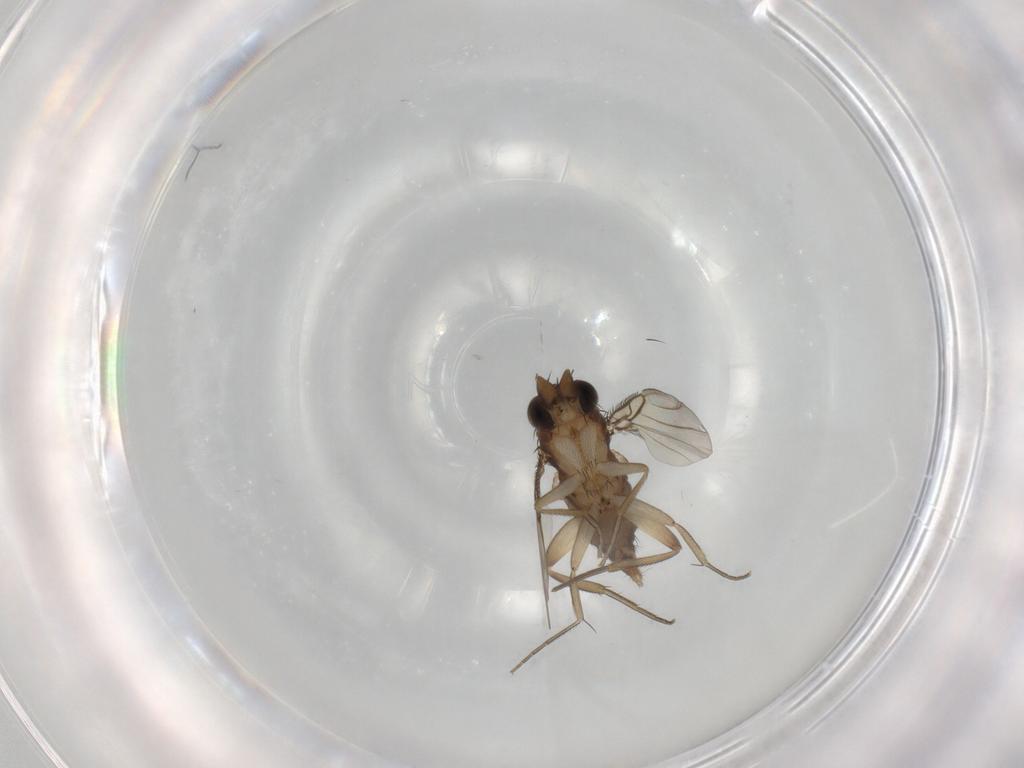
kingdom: Animalia
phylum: Arthropoda
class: Insecta
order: Diptera
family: Phoridae
